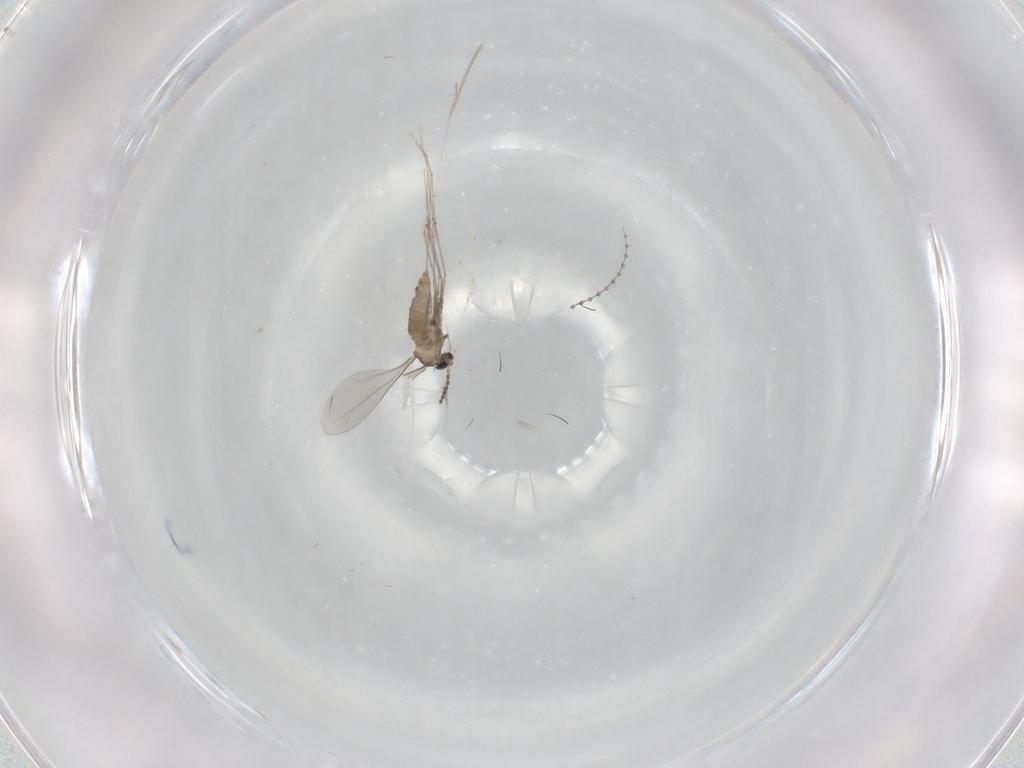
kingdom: Animalia
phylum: Arthropoda
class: Insecta
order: Diptera
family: Cecidomyiidae
